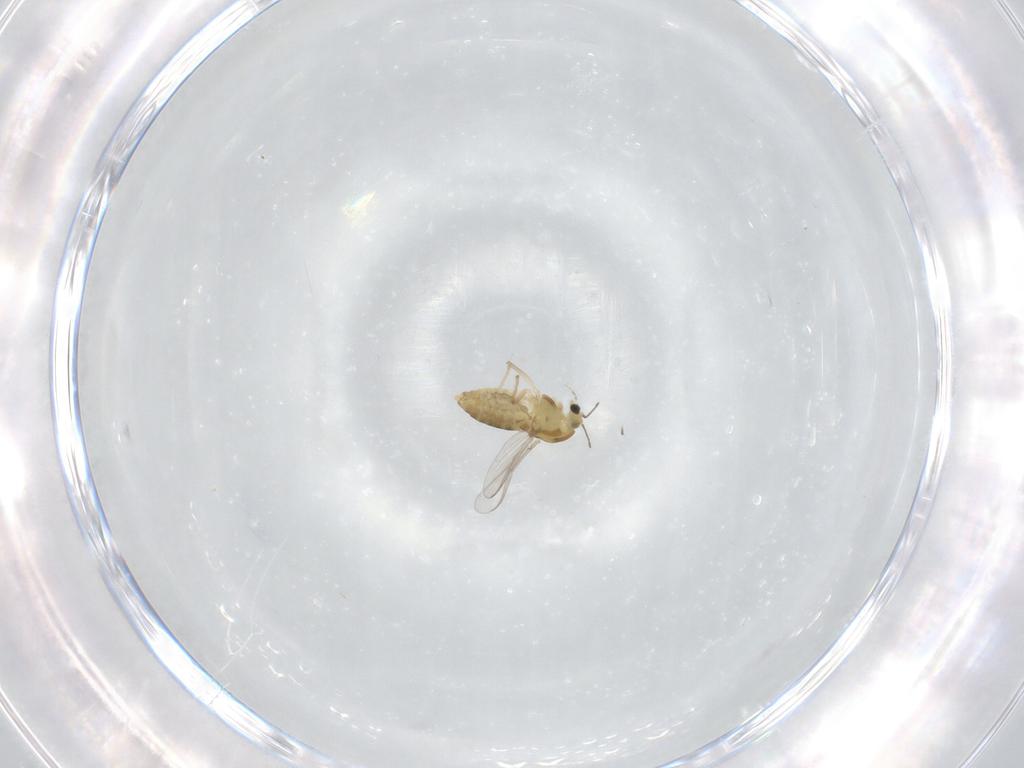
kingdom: Animalia
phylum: Arthropoda
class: Insecta
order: Diptera
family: Chironomidae
